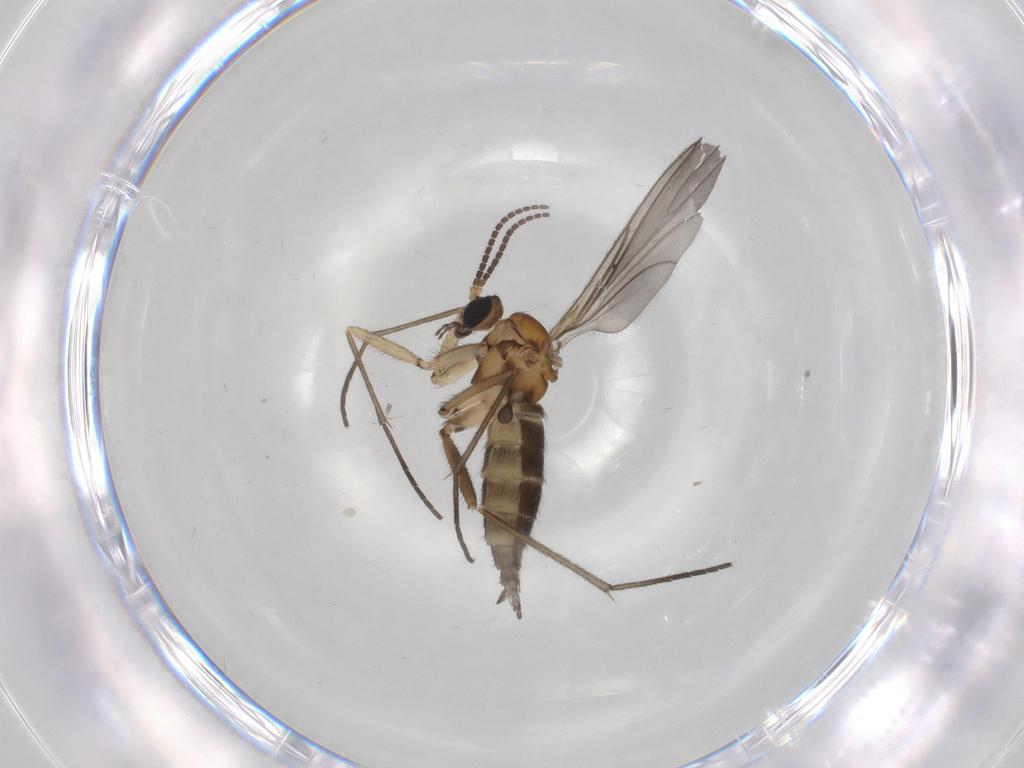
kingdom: Animalia
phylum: Arthropoda
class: Insecta
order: Diptera
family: Sciaridae
